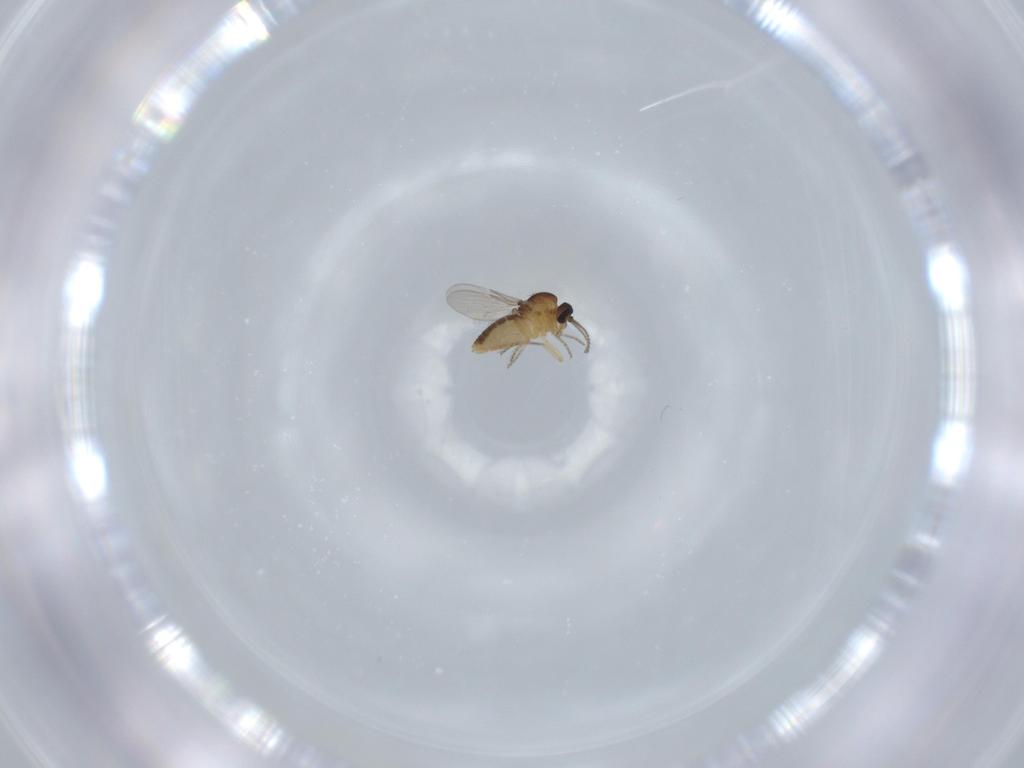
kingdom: Animalia
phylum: Arthropoda
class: Insecta
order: Diptera
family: Ceratopogonidae
